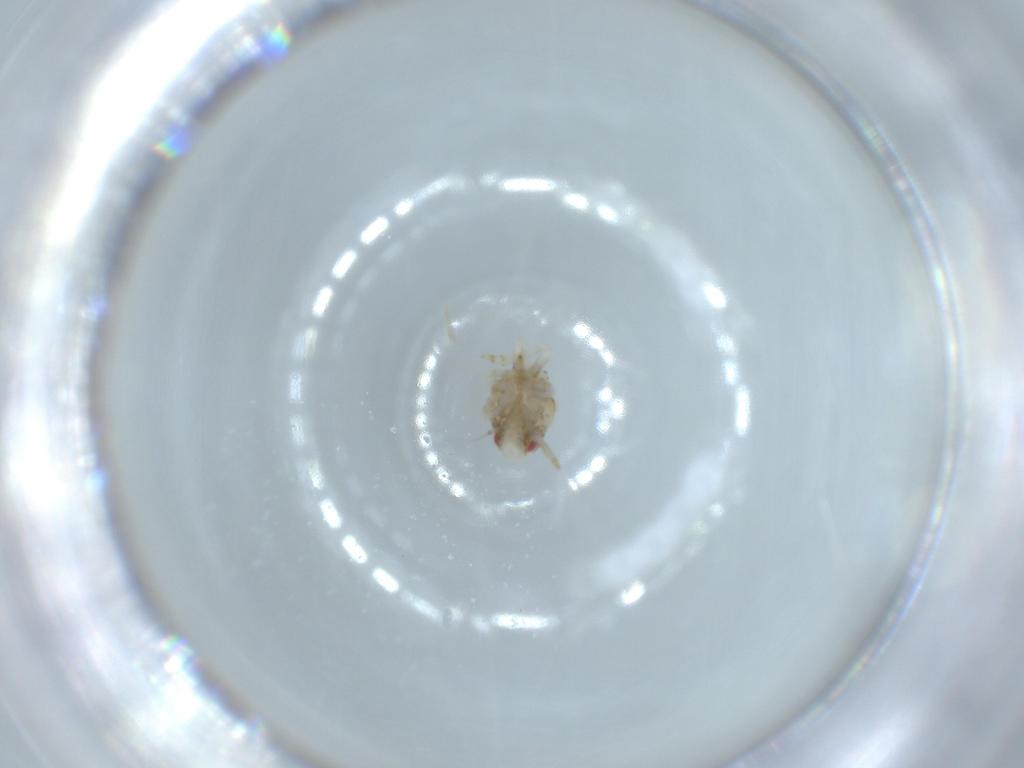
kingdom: Animalia
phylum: Arthropoda
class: Insecta
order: Hemiptera
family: Acanaloniidae
